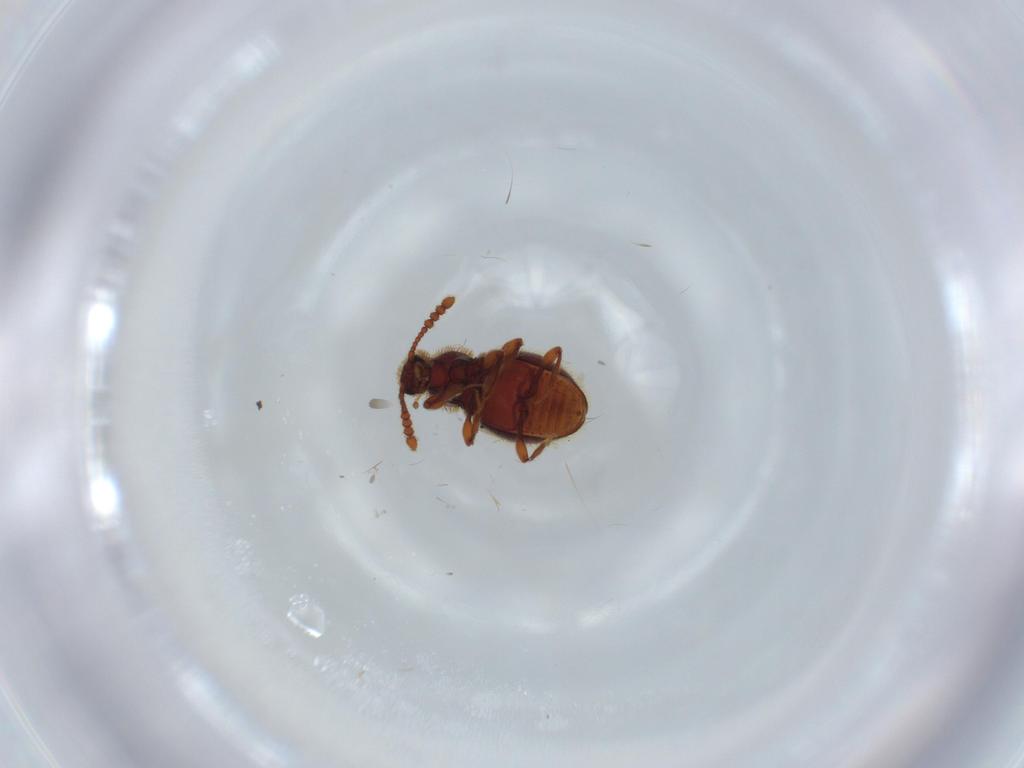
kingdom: Animalia
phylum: Arthropoda
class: Insecta
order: Coleoptera
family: Staphylinidae
